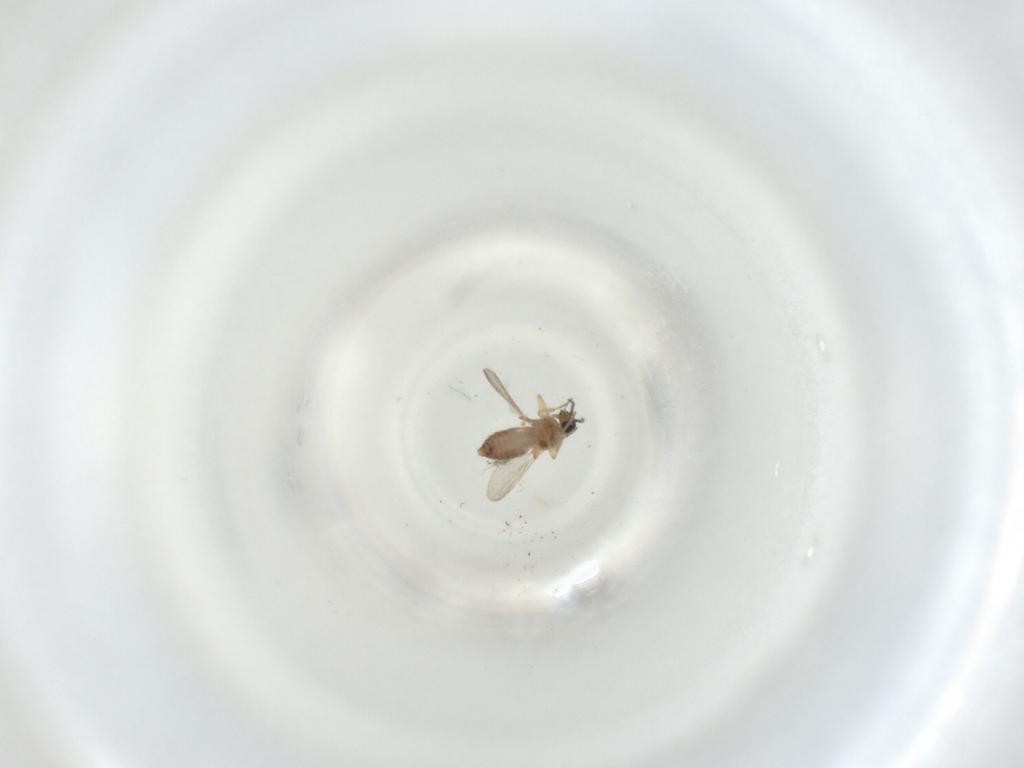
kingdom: Animalia
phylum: Arthropoda
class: Insecta
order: Diptera
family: Ceratopogonidae
